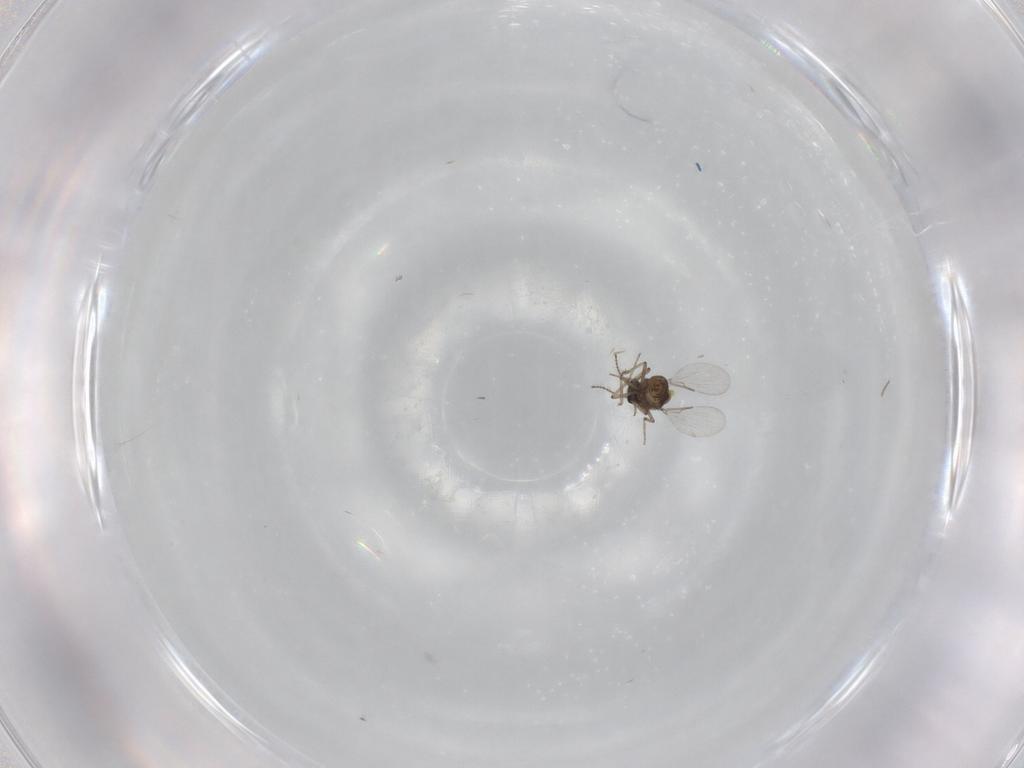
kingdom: Animalia
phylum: Arthropoda
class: Insecta
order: Diptera
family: Ceratopogonidae
